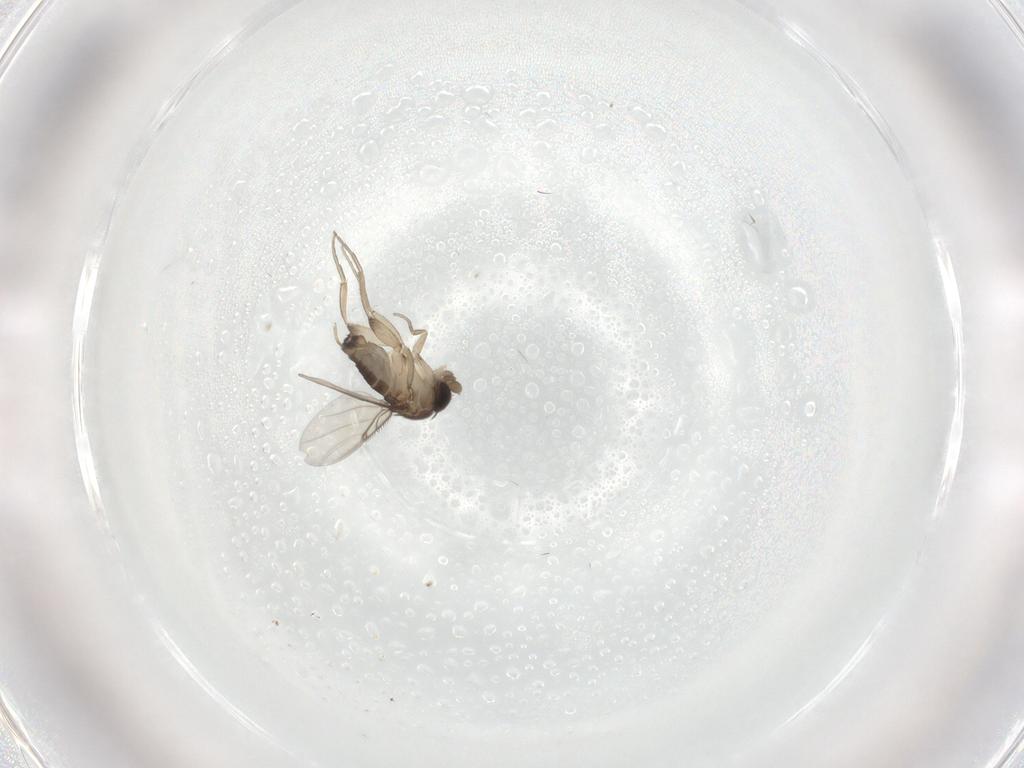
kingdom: Animalia
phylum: Arthropoda
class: Insecta
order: Diptera
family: Phoridae
